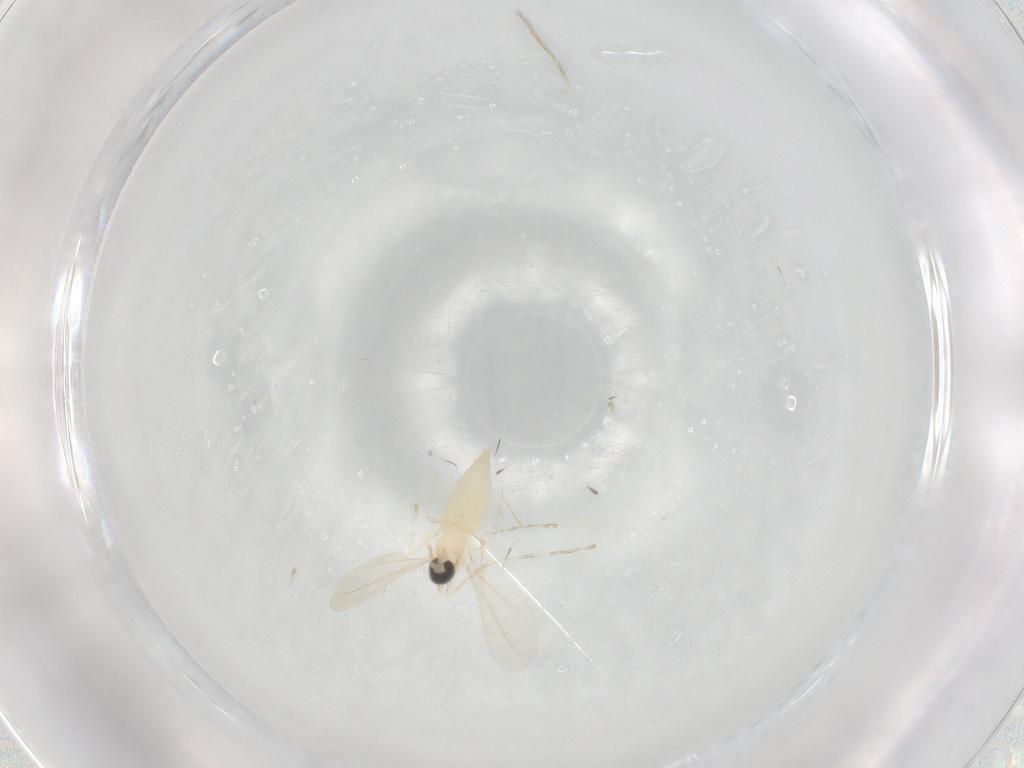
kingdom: Animalia
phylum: Arthropoda
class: Insecta
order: Diptera
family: Cecidomyiidae
